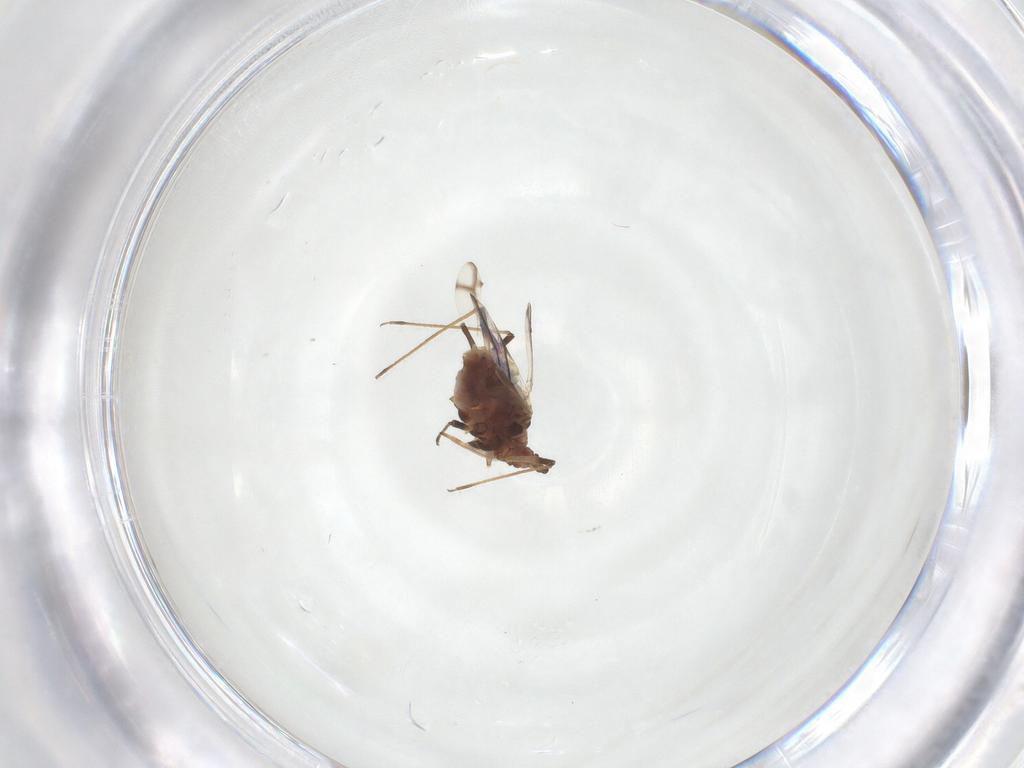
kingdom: Animalia
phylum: Arthropoda
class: Insecta
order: Hemiptera
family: Aphididae
